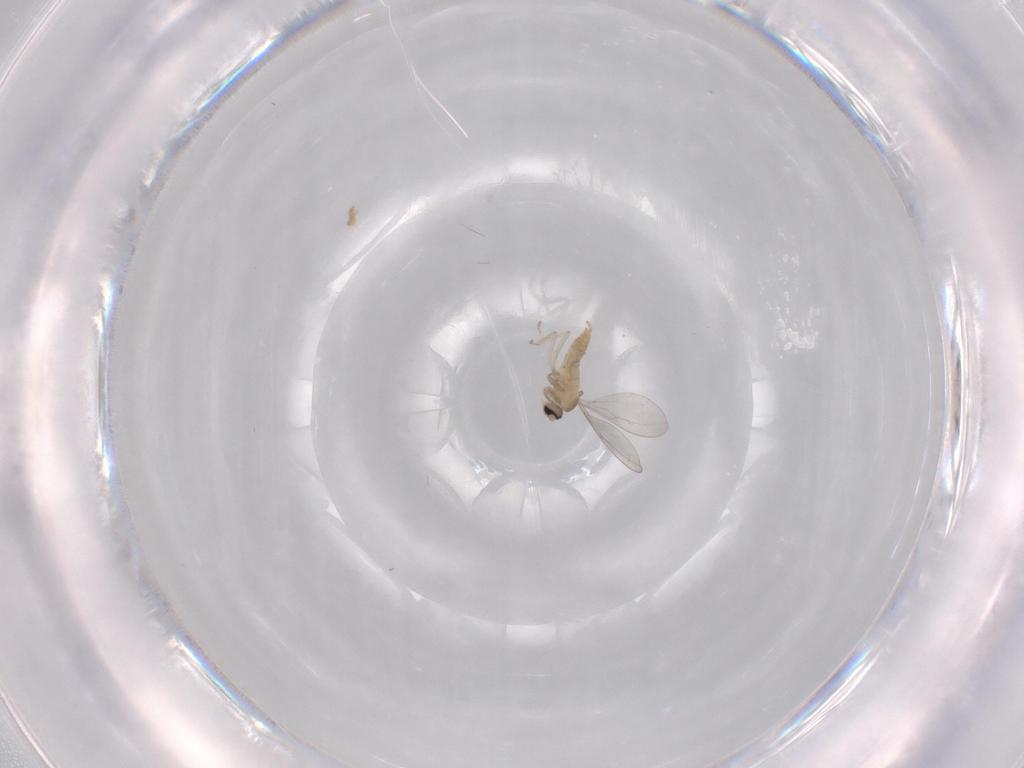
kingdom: Animalia
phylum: Arthropoda
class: Insecta
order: Diptera
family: Cecidomyiidae
